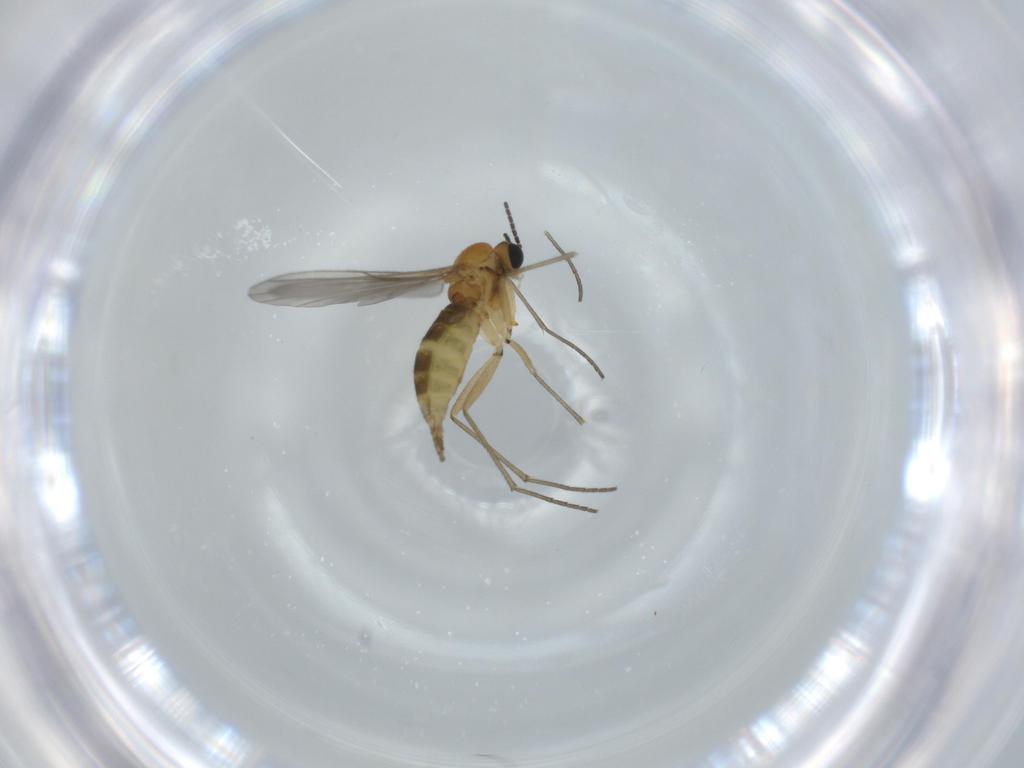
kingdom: Animalia
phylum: Arthropoda
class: Insecta
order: Diptera
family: Sciaridae
